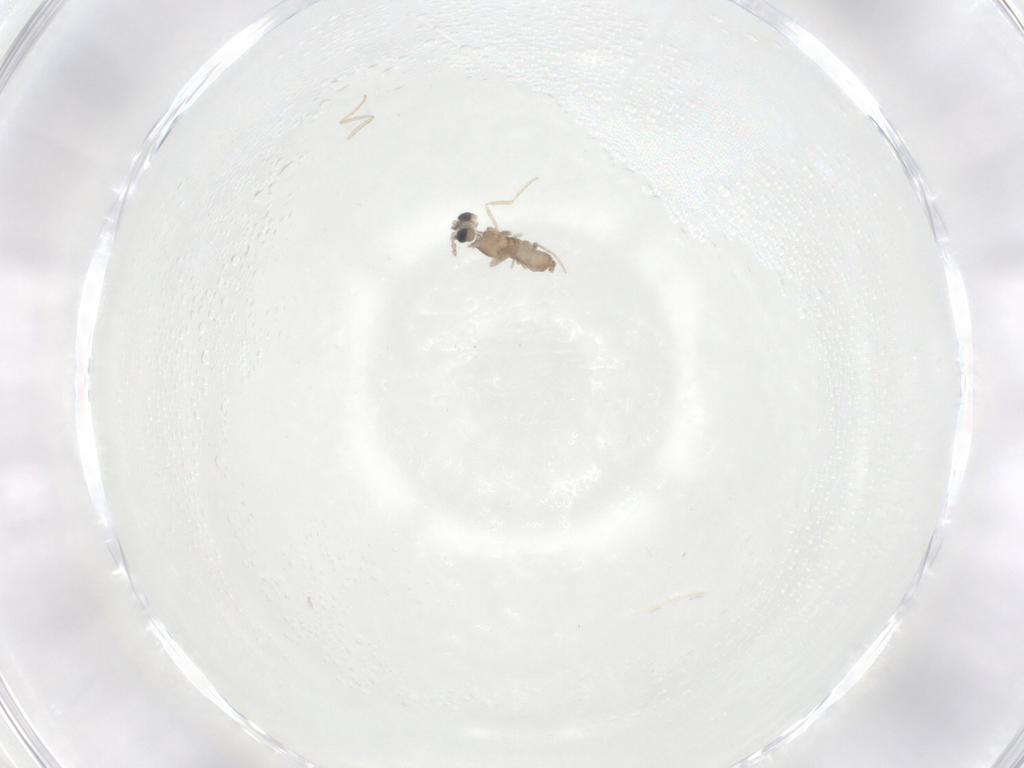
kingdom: Animalia
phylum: Arthropoda
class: Insecta
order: Diptera
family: Cecidomyiidae
